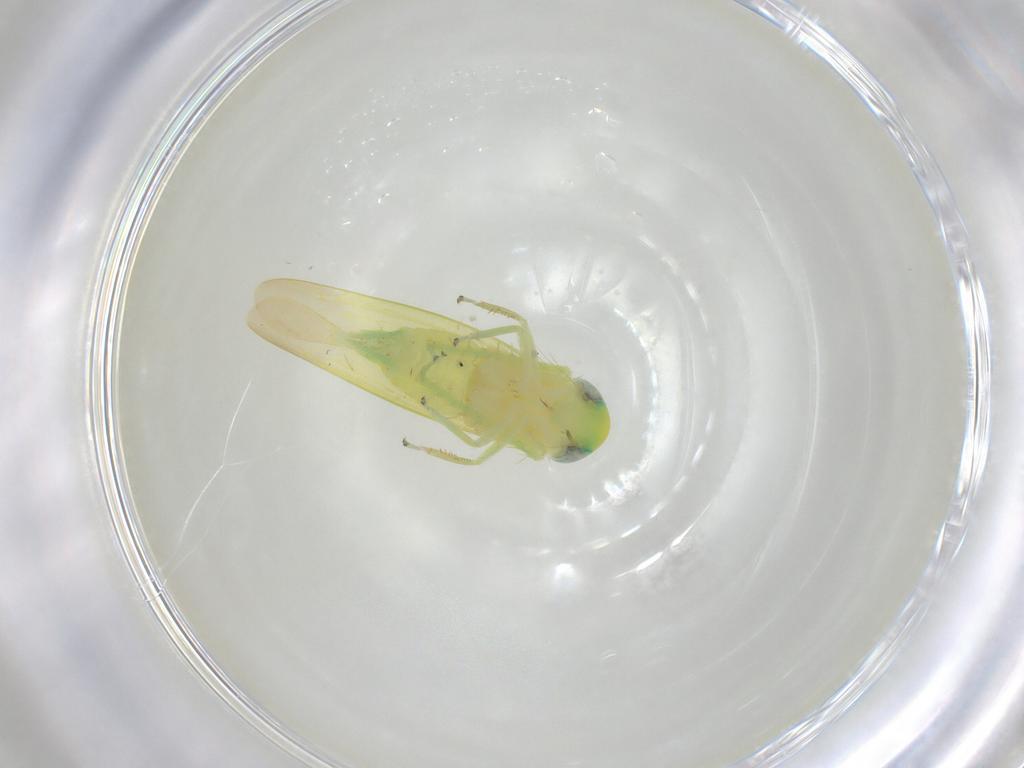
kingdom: Animalia
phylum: Arthropoda
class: Insecta
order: Hemiptera
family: Cicadellidae
